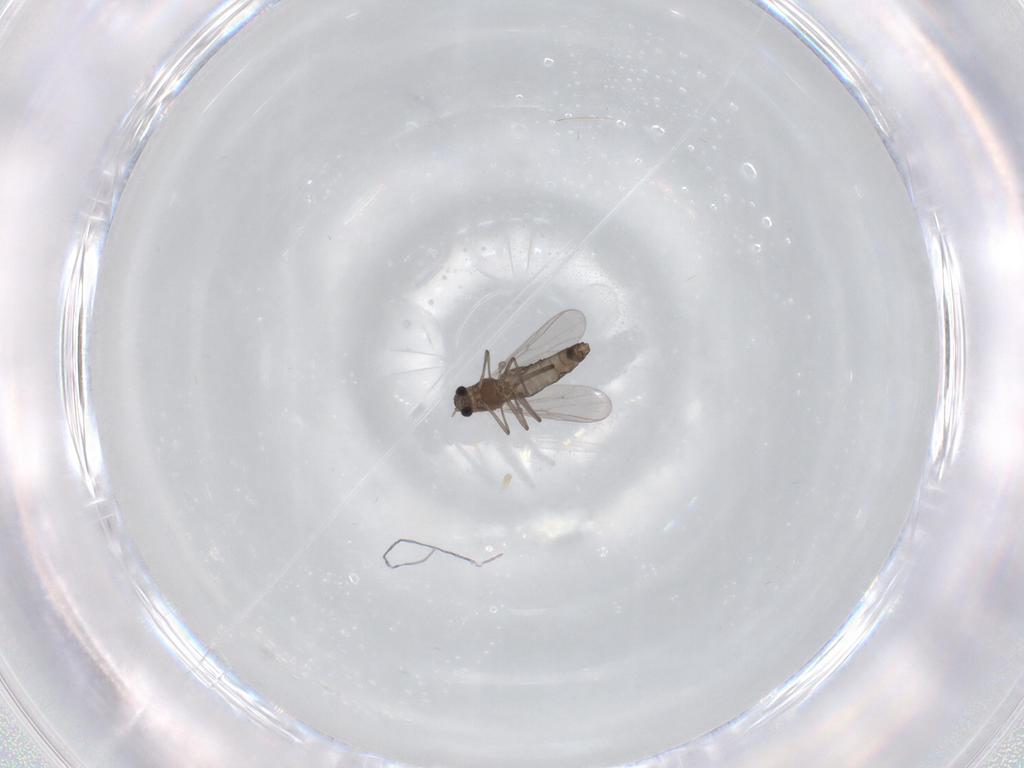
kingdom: Animalia
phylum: Arthropoda
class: Insecta
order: Diptera
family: Chironomidae
